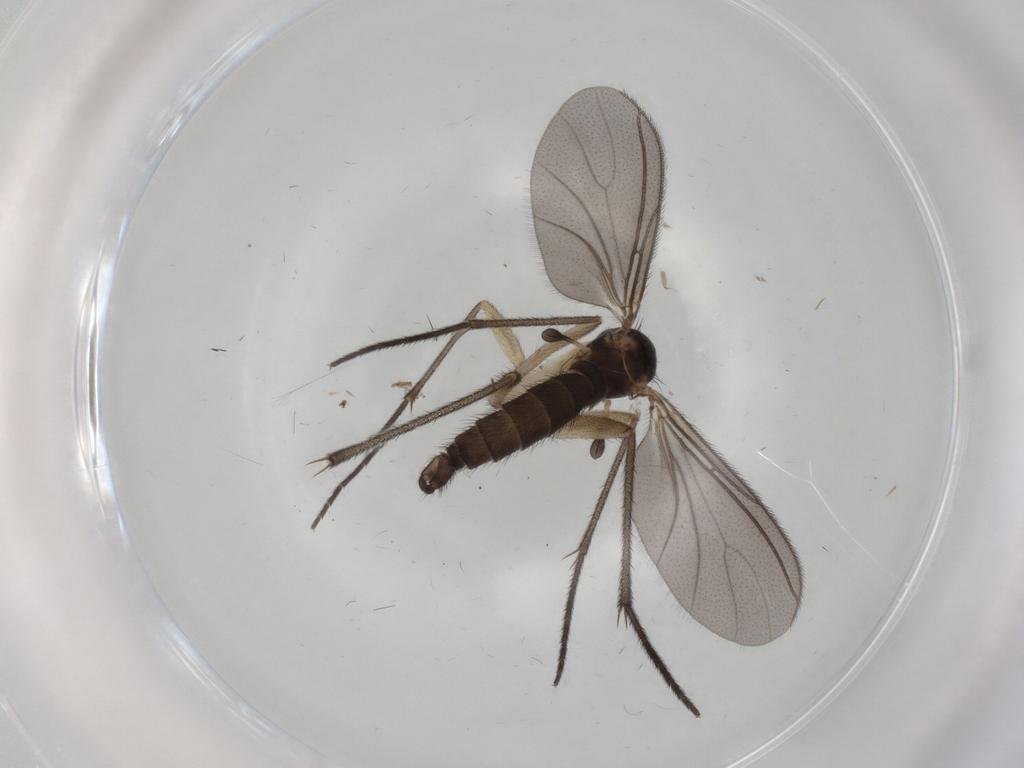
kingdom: Animalia
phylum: Arthropoda
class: Insecta
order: Diptera
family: Sciaridae
